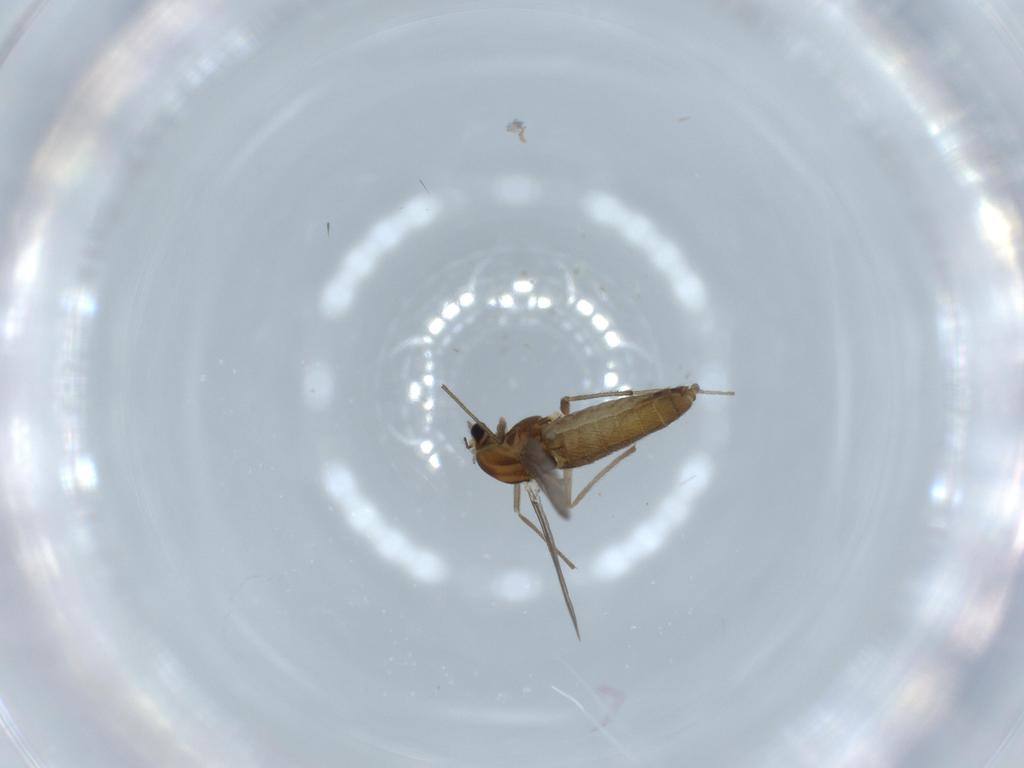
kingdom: Animalia
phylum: Arthropoda
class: Insecta
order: Diptera
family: Chironomidae
